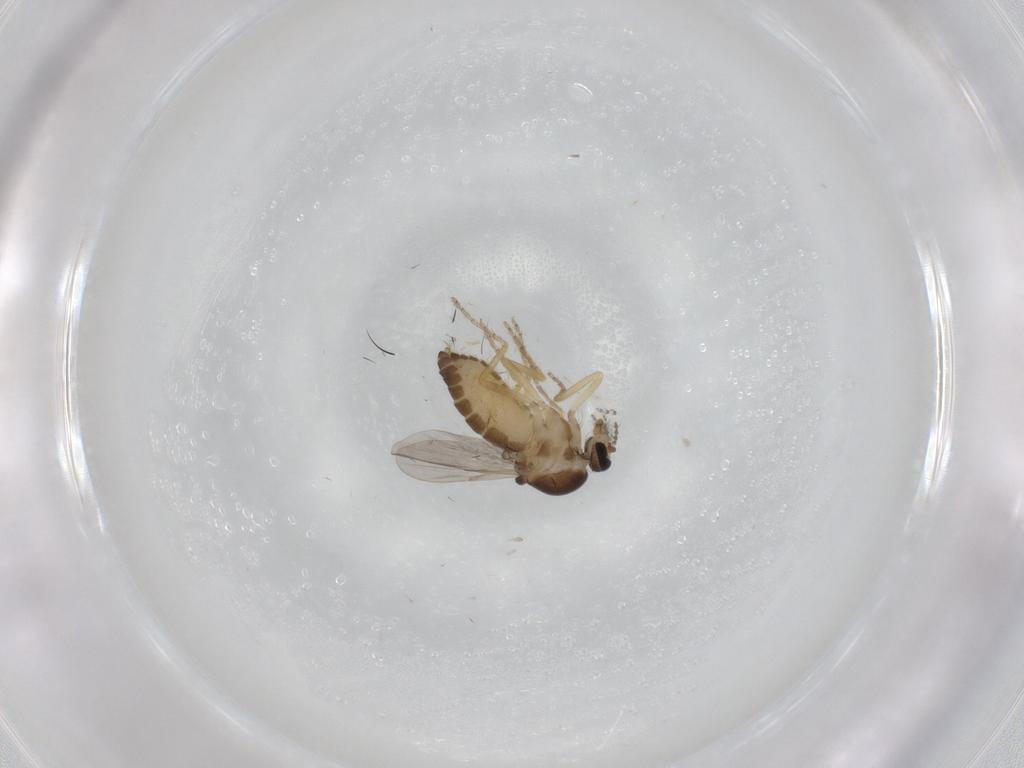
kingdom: Animalia
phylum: Arthropoda
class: Insecta
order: Diptera
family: Ceratopogonidae
